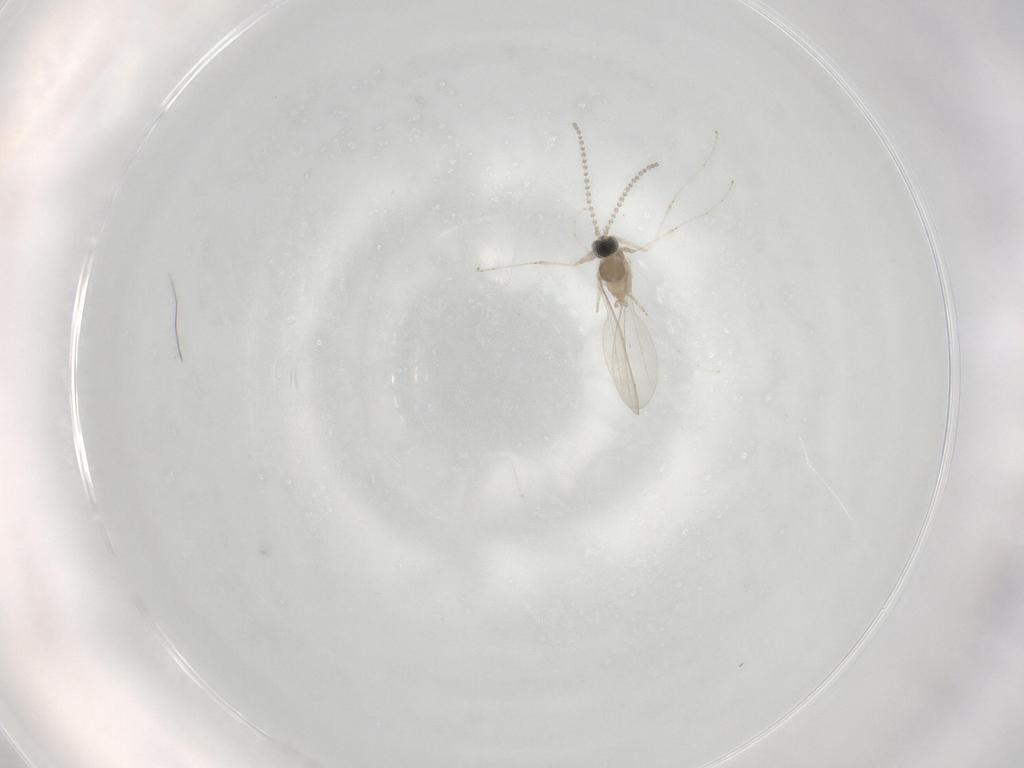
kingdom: Animalia
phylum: Arthropoda
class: Insecta
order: Diptera
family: Cecidomyiidae
